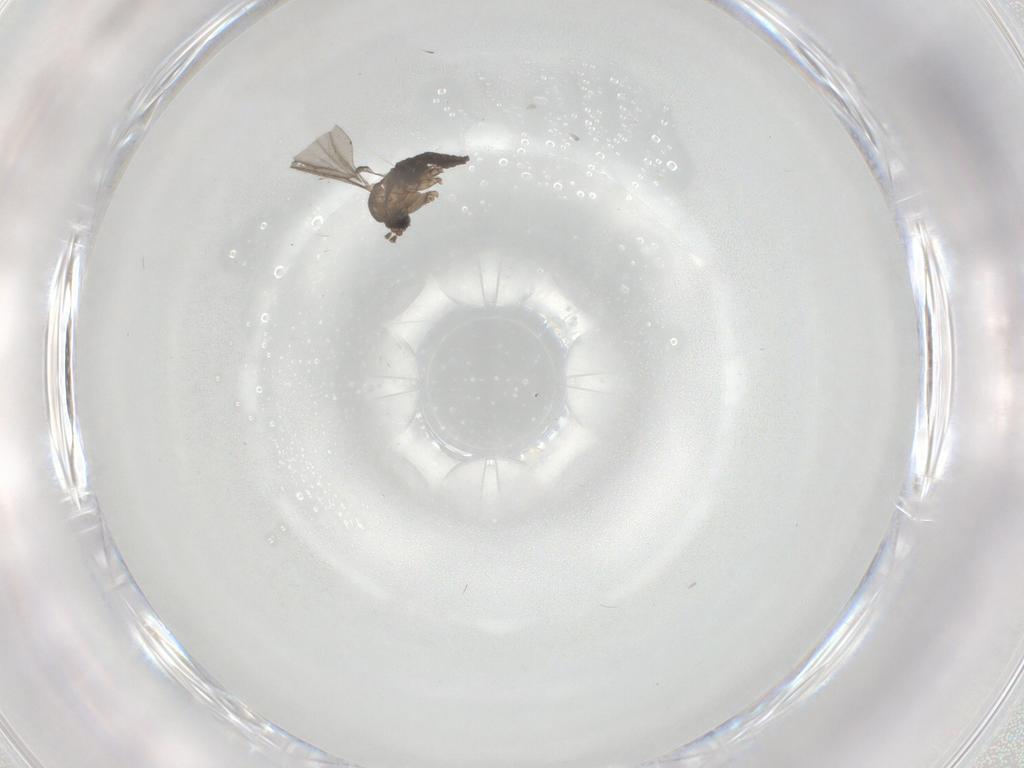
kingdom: Animalia
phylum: Arthropoda
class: Insecta
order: Diptera
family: Sciaridae
